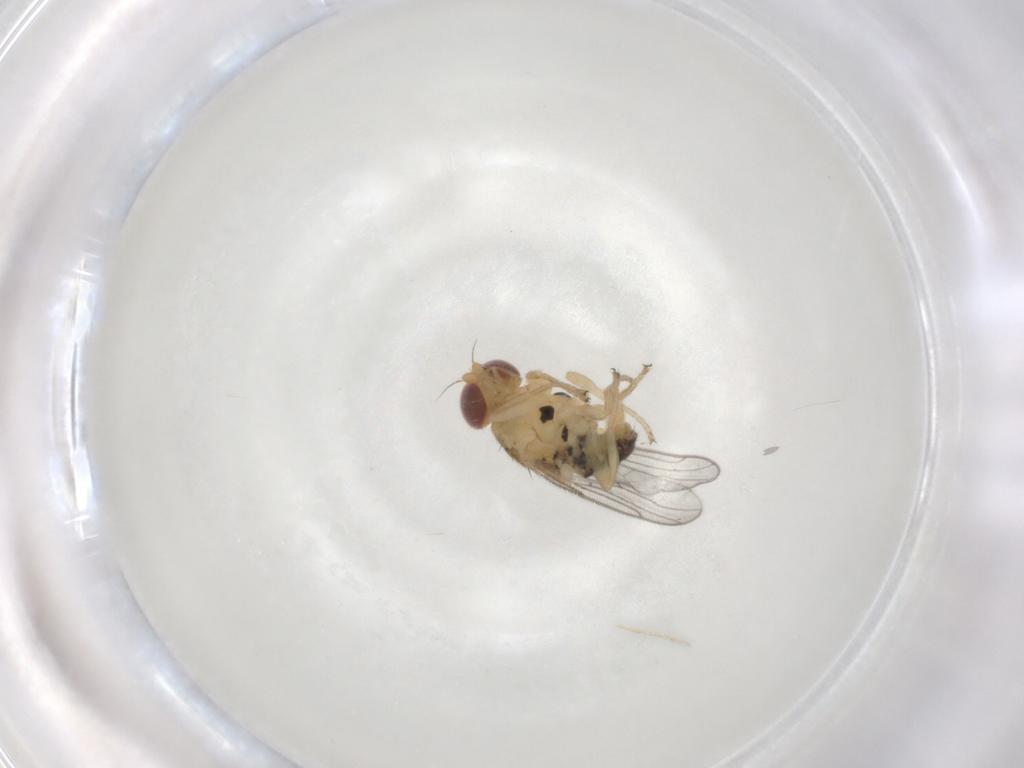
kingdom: Animalia
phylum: Arthropoda
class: Insecta
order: Diptera
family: Chloropidae
